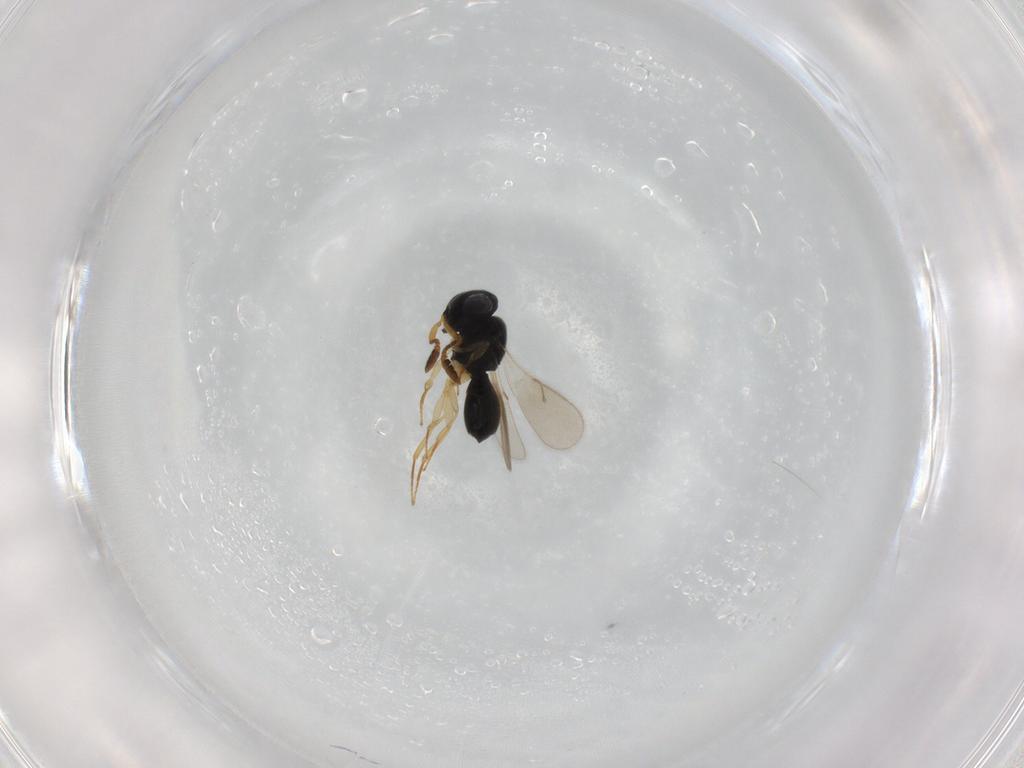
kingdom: Animalia
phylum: Arthropoda
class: Insecta
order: Hymenoptera
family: Scelionidae
